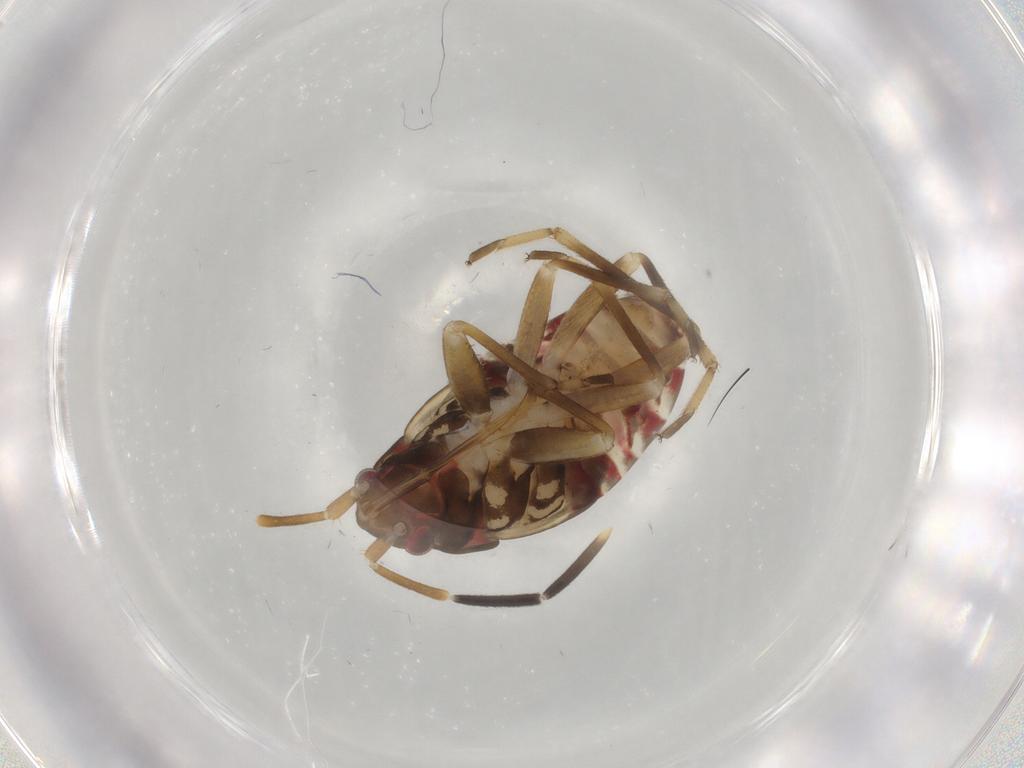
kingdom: Animalia
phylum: Arthropoda
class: Insecta
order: Hemiptera
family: Rhyparochromidae
